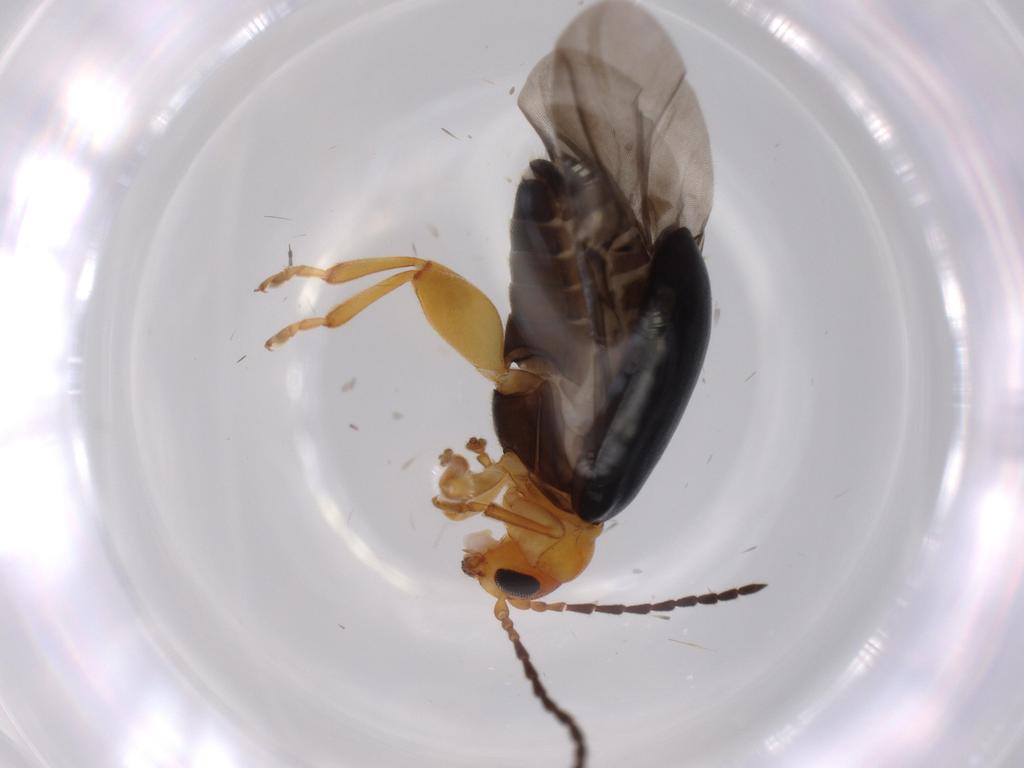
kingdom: Animalia
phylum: Arthropoda
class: Insecta
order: Coleoptera
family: Chrysomelidae
